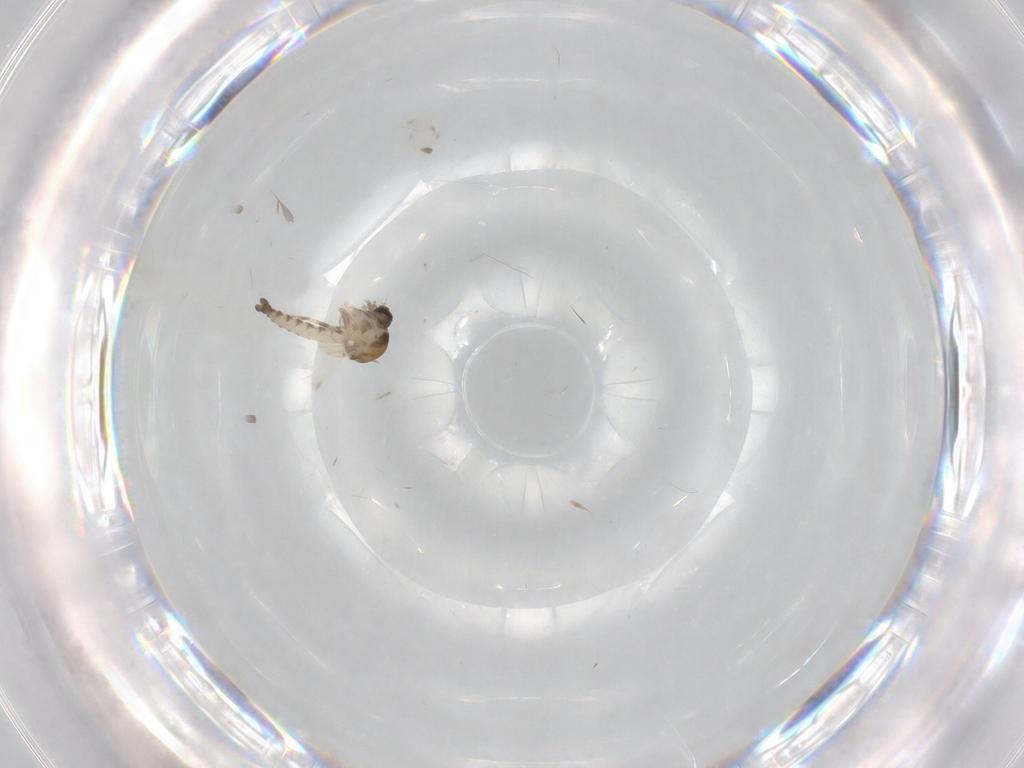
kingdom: Animalia
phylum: Arthropoda
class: Insecta
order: Diptera
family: Ceratopogonidae
